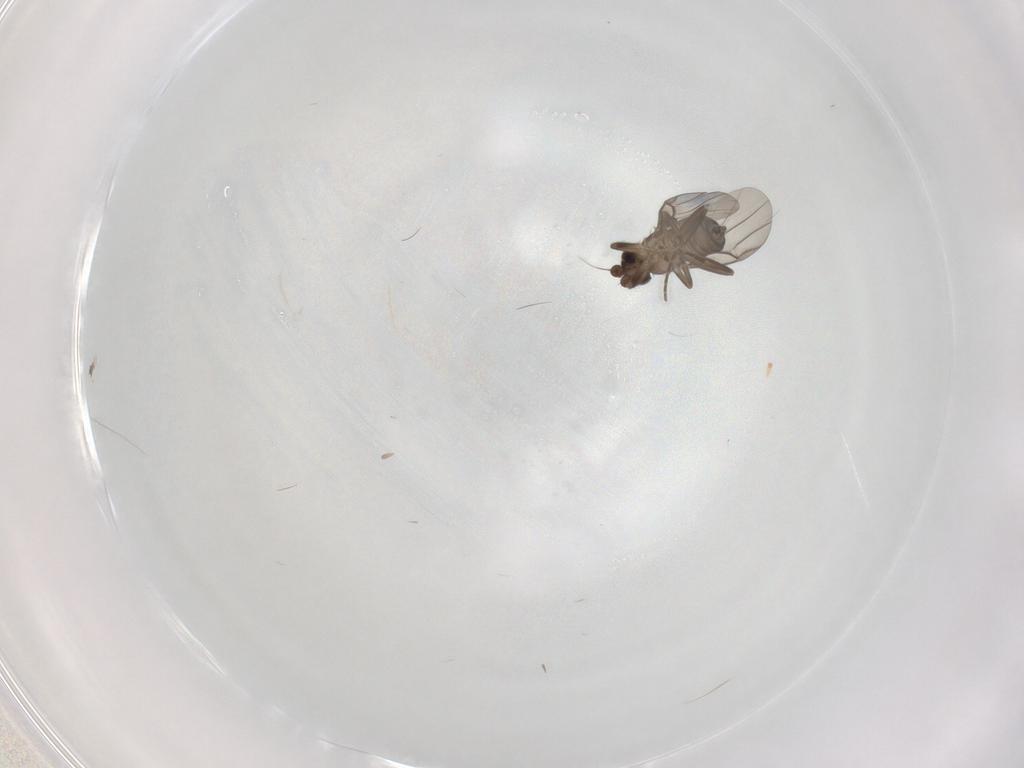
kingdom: Animalia
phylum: Arthropoda
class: Insecta
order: Diptera
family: Phoridae
